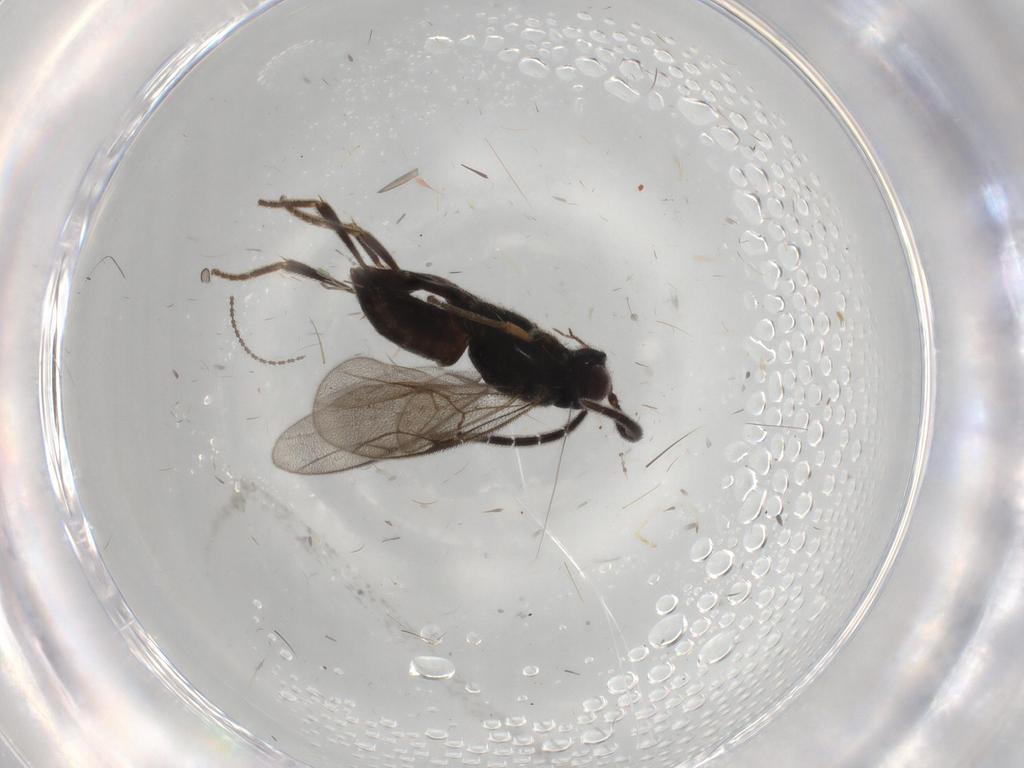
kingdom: Animalia
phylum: Arthropoda
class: Insecta
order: Hymenoptera
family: Dryinidae
